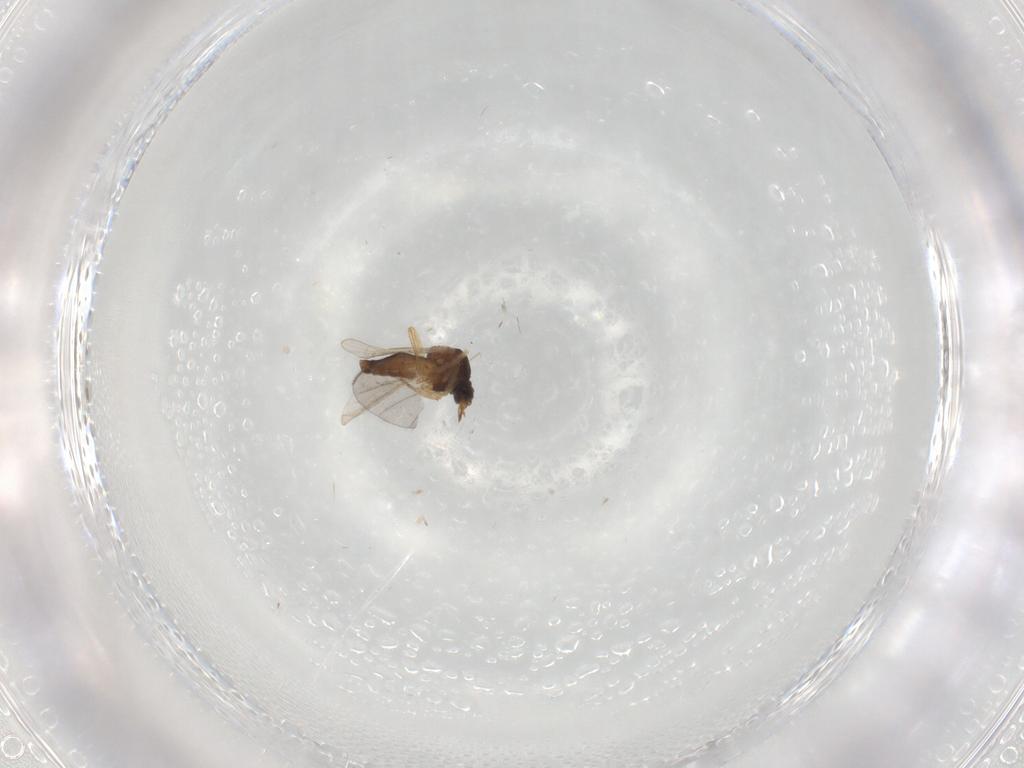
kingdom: Animalia
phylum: Arthropoda
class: Insecta
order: Diptera
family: Ceratopogonidae
